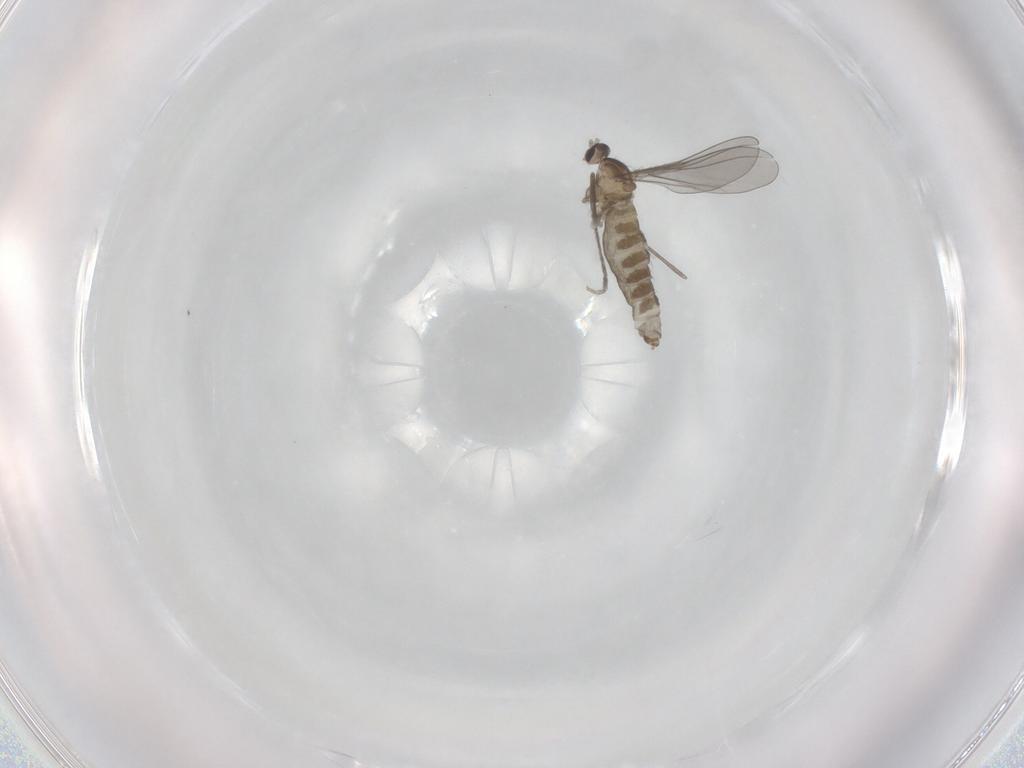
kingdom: Animalia
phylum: Arthropoda
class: Insecta
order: Diptera
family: Cecidomyiidae
